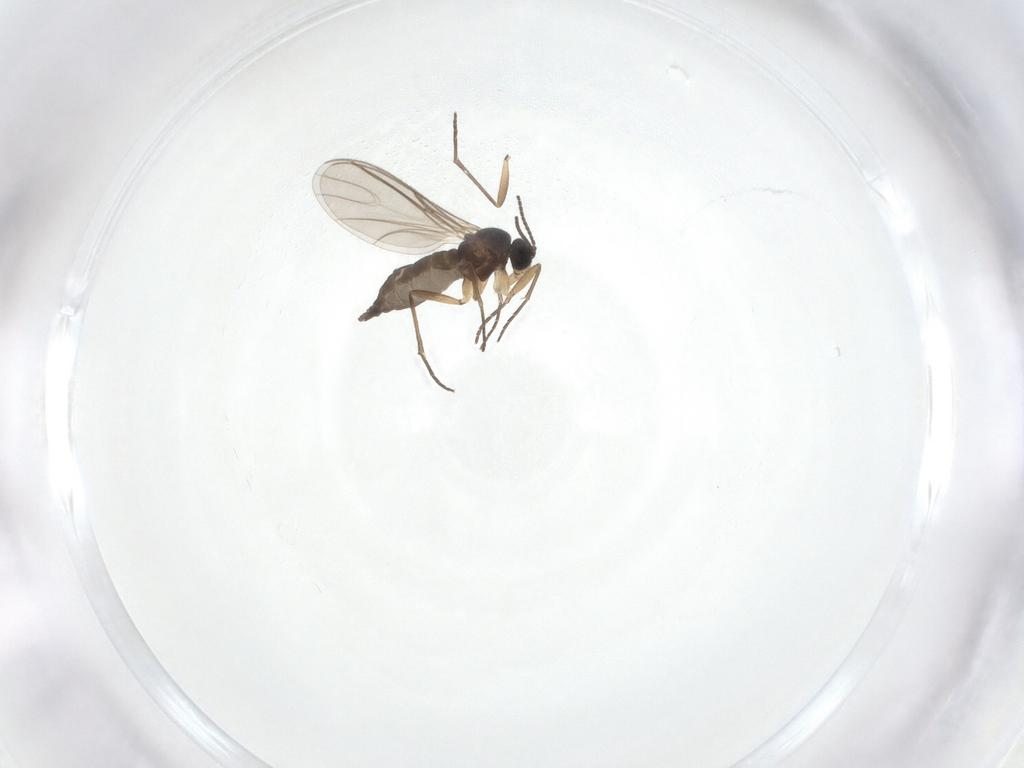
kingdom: Animalia
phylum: Arthropoda
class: Insecta
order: Diptera
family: Sciaridae
